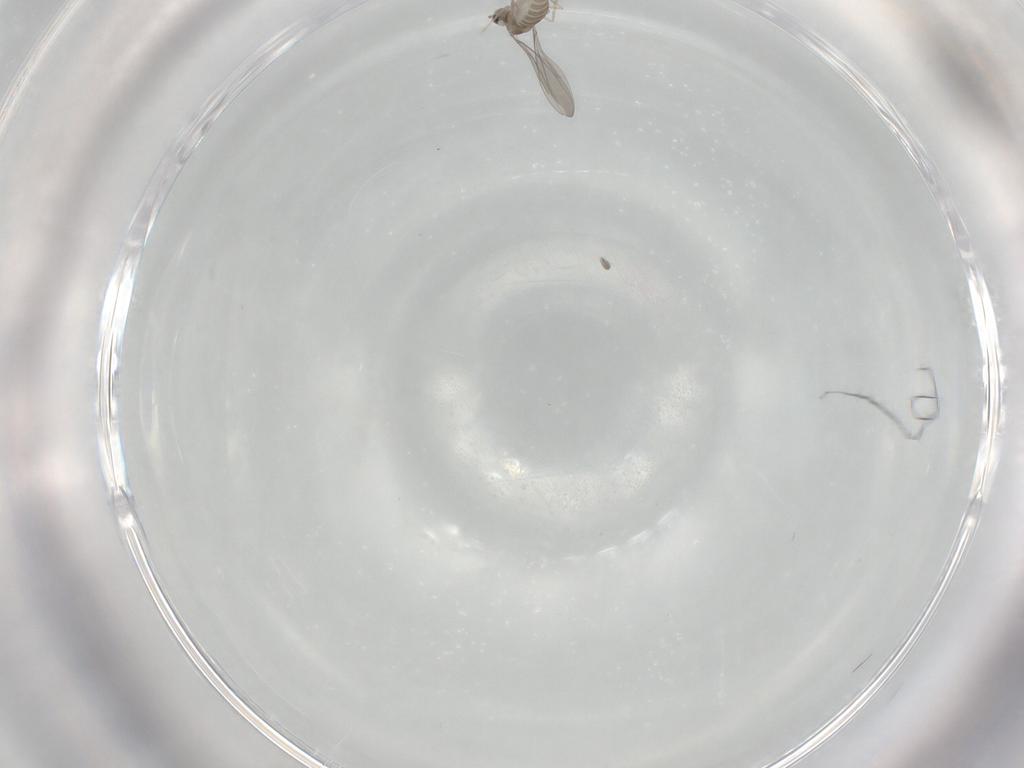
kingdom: Animalia
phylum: Arthropoda
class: Insecta
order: Diptera
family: Cecidomyiidae
